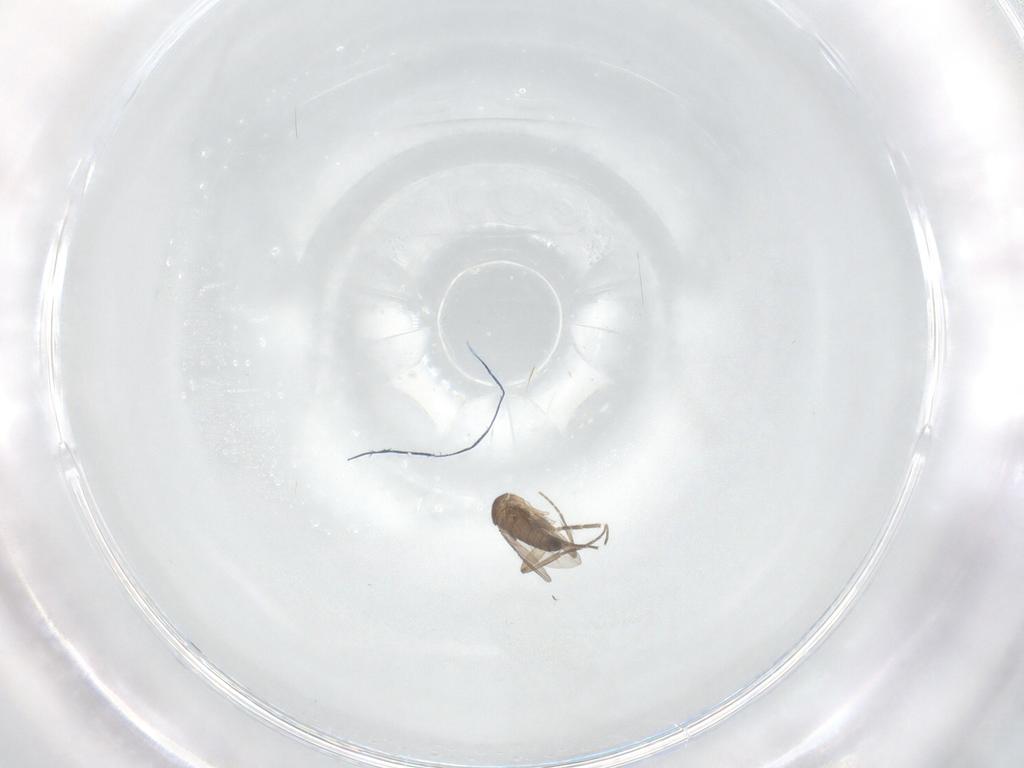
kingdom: Animalia
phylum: Arthropoda
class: Insecta
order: Diptera
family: Phoridae
